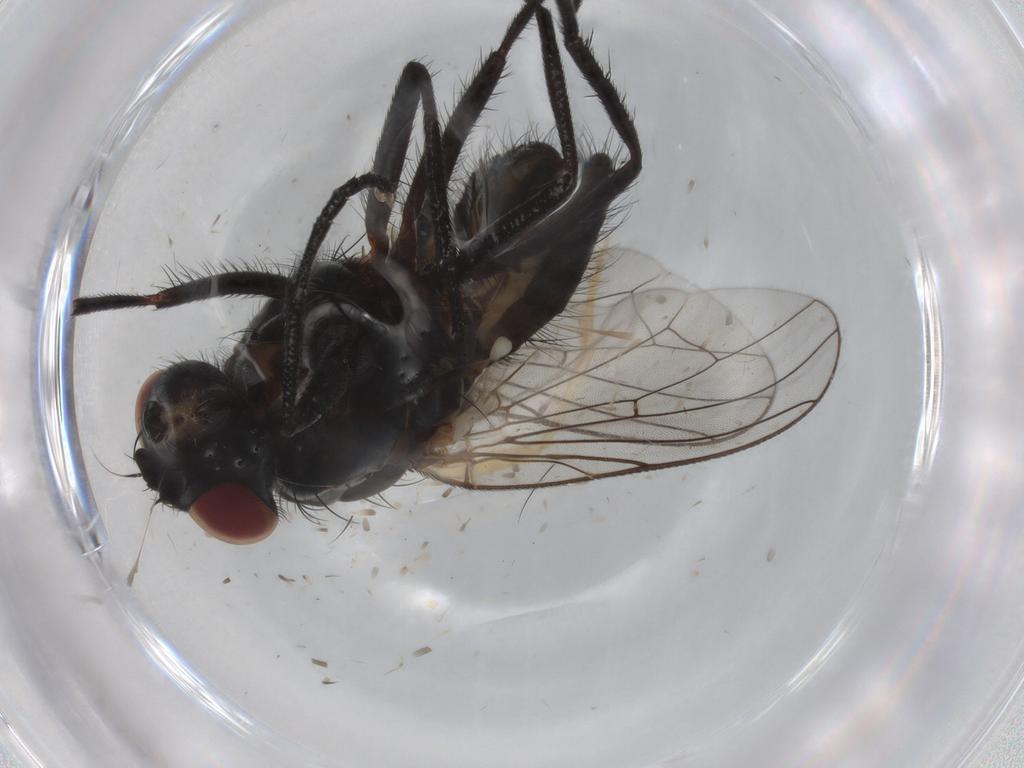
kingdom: Animalia
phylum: Arthropoda
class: Insecta
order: Diptera
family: Anthomyiidae
